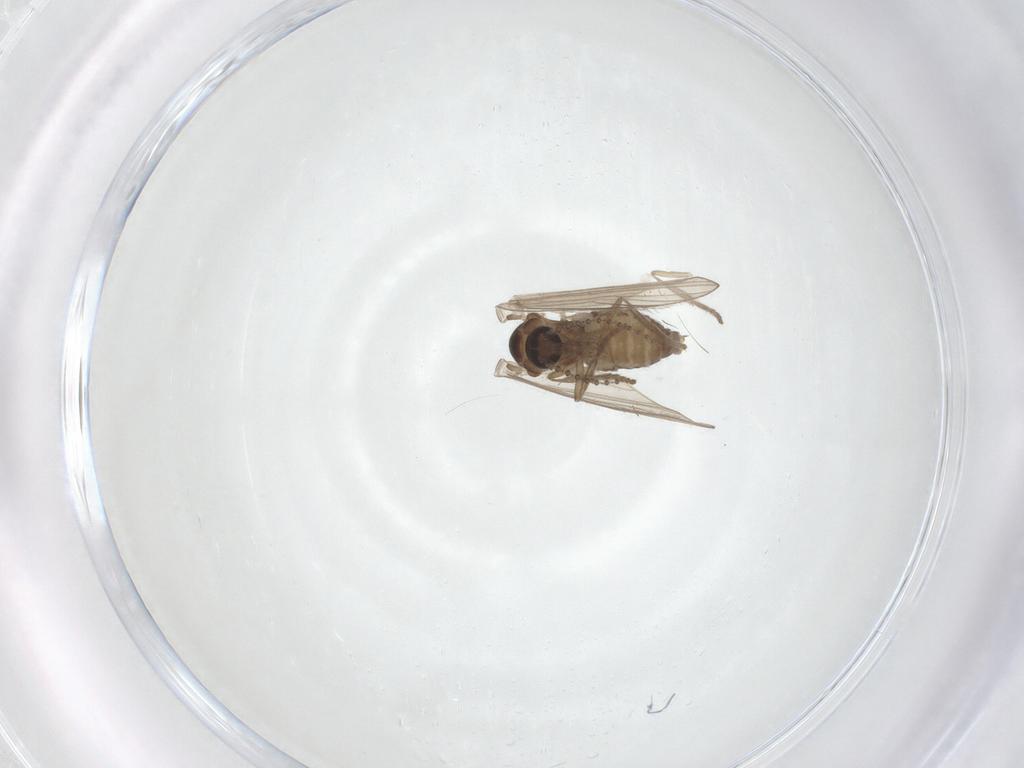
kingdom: Animalia
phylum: Arthropoda
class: Insecta
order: Diptera
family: Psychodidae
